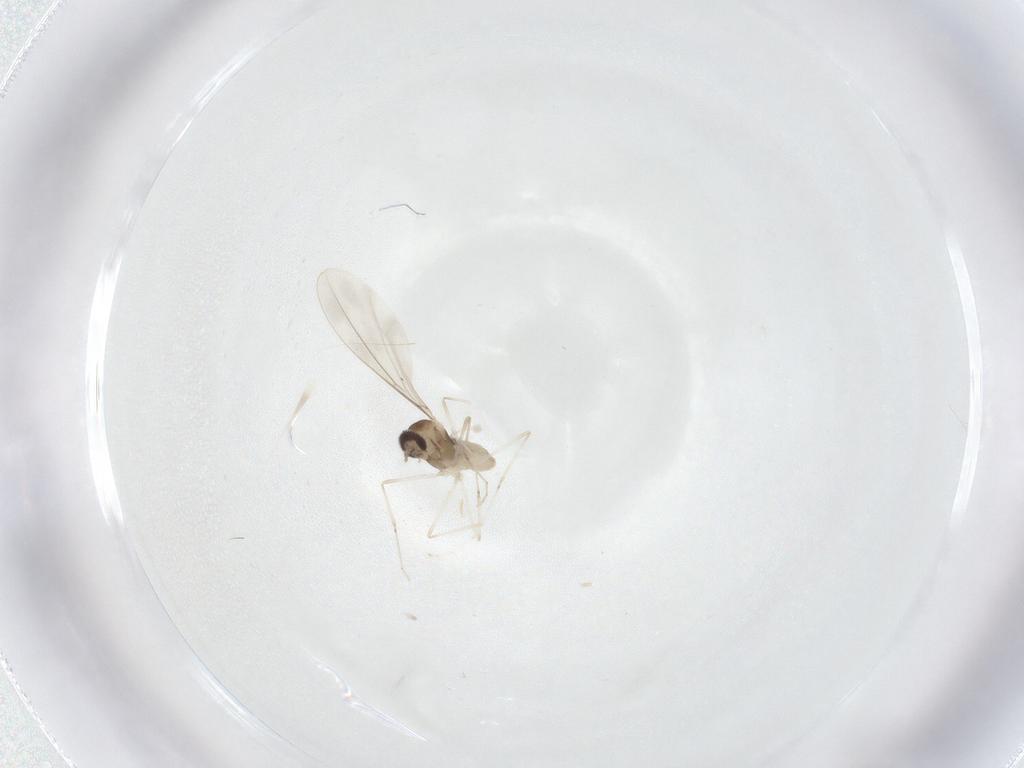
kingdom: Animalia
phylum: Arthropoda
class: Insecta
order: Diptera
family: Cecidomyiidae
